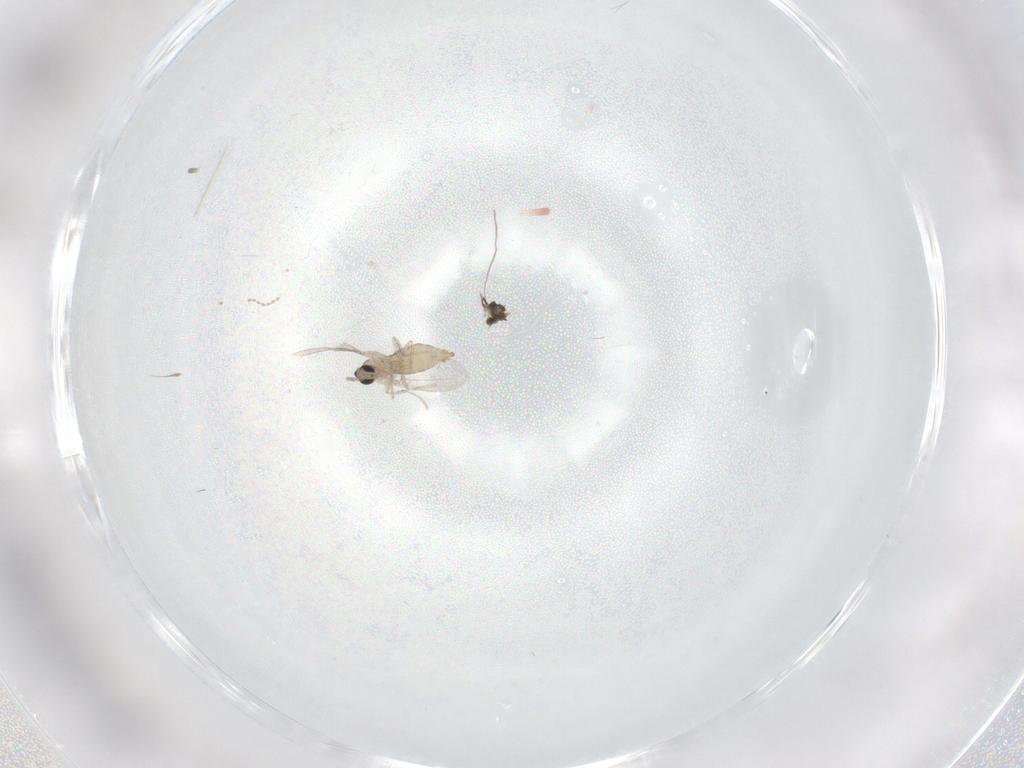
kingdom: Animalia
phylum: Arthropoda
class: Insecta
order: Diptera
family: Cecidomyiidae
